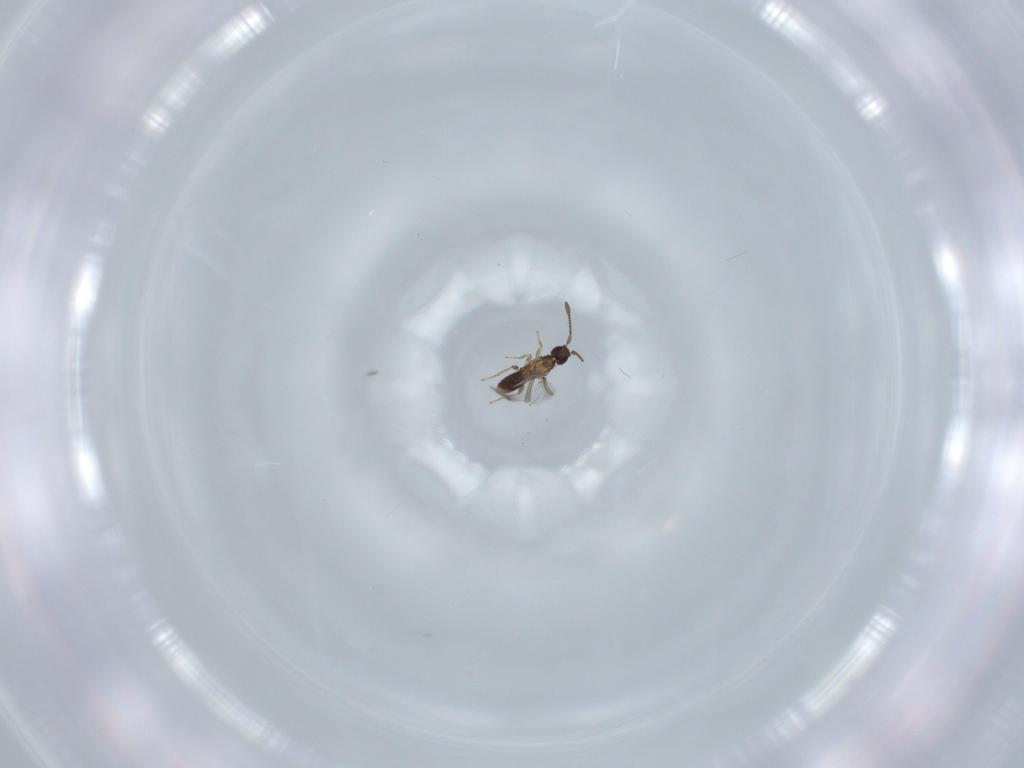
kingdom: Animalia
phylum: Arthropoda
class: Insecta
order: Hymenoptera
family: Mymaridae
